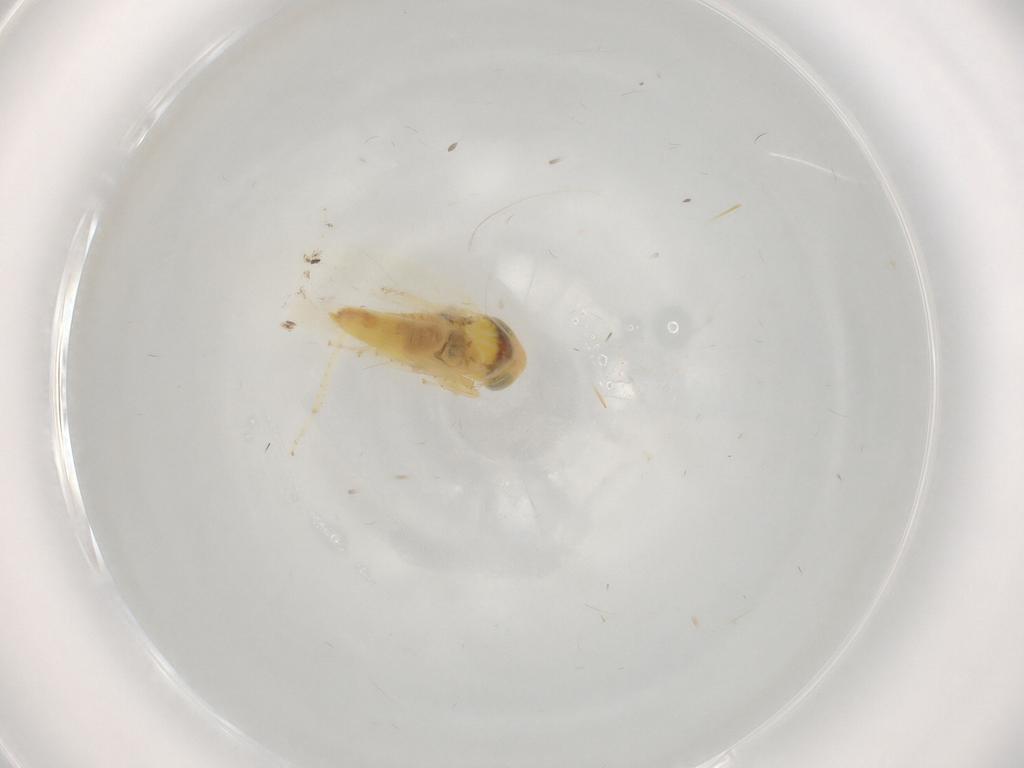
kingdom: Animalia
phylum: Arthropoda
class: Insecta
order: Hemiptera
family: Cicadellidae
